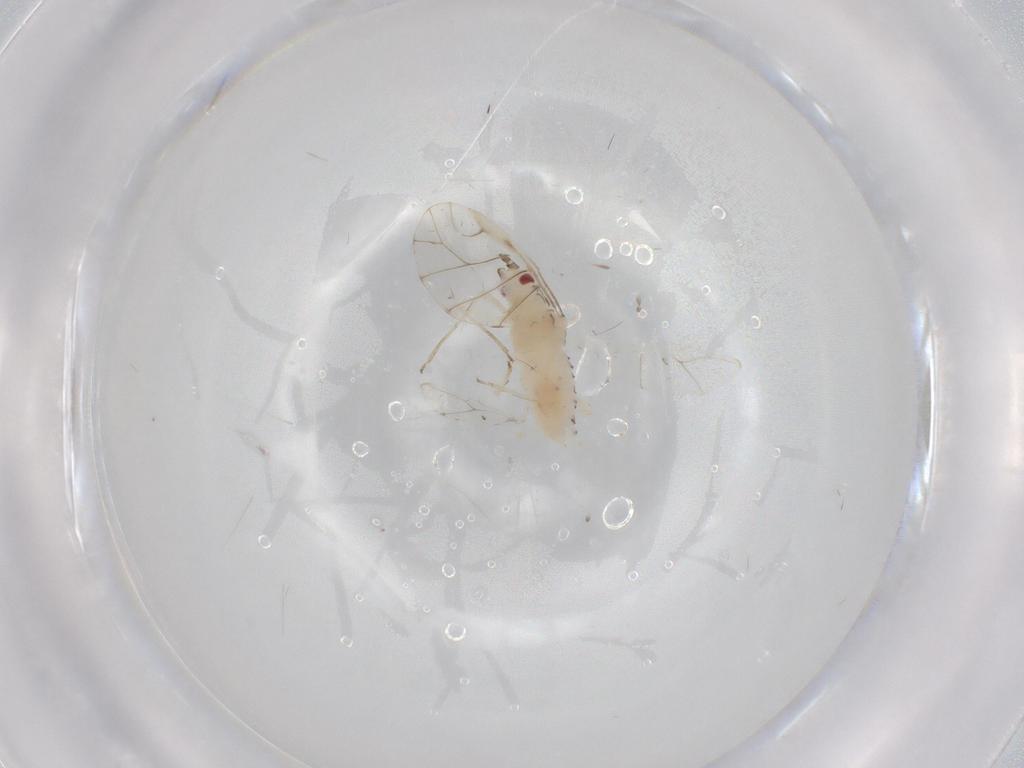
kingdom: Animalia
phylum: Arthropoda
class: Insecta
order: Hemiptera
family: Aphididae
